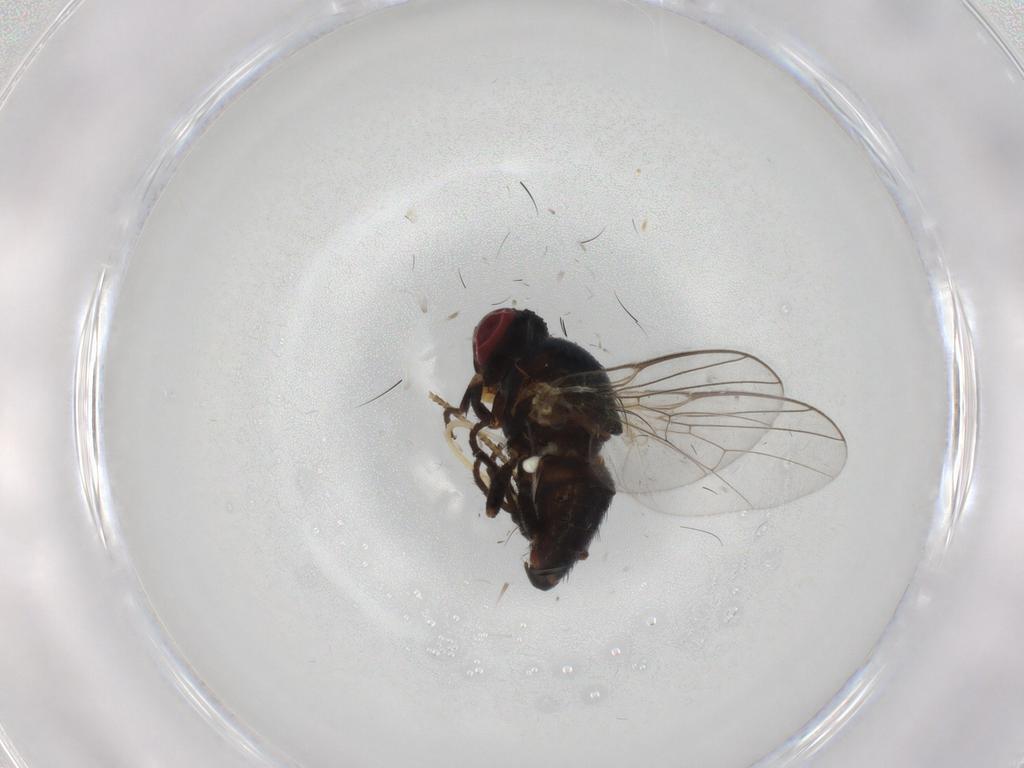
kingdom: Animalia
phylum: Arthropoda
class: Insecta
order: Diptera
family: Agromyzidae
